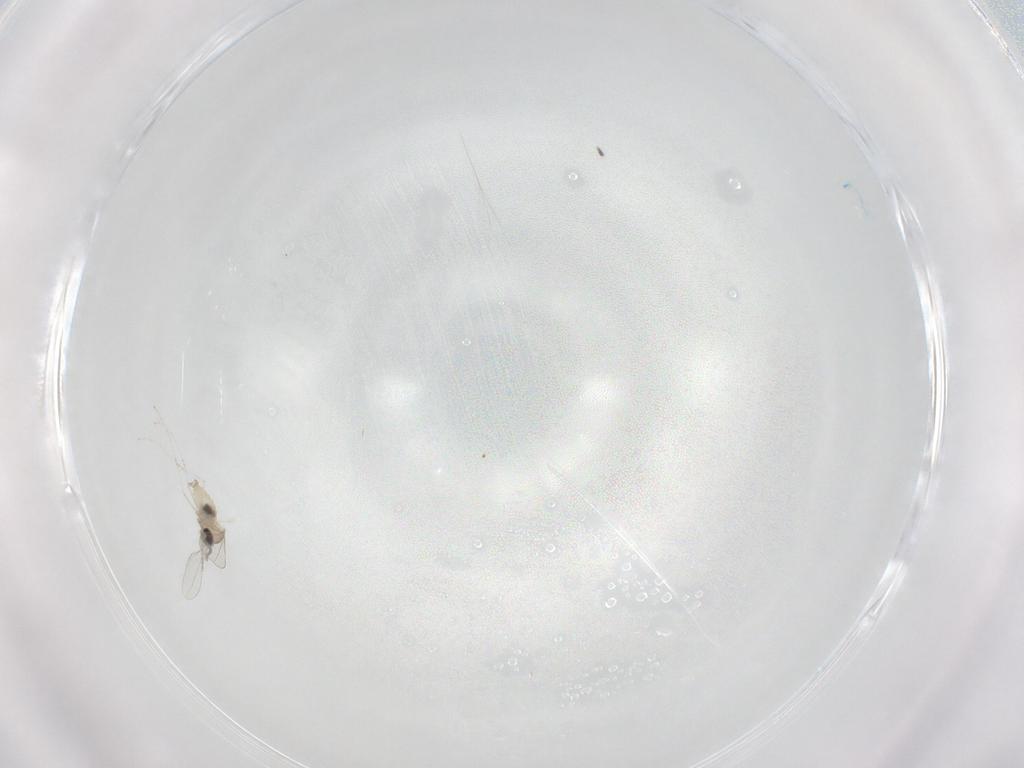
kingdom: Animalia
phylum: Arthropoda
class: Insecta
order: Diptera
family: Cecidomyiidae
